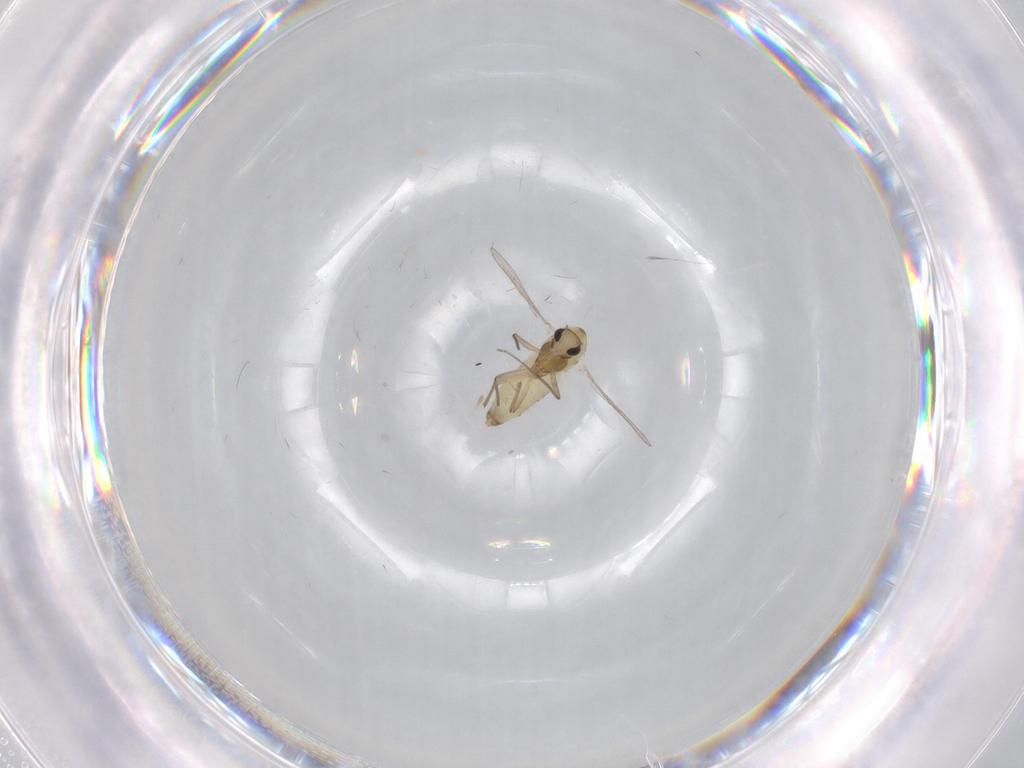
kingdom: Animalia
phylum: Arthropoda
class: Insecta
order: Diptera
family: Chironomidae
